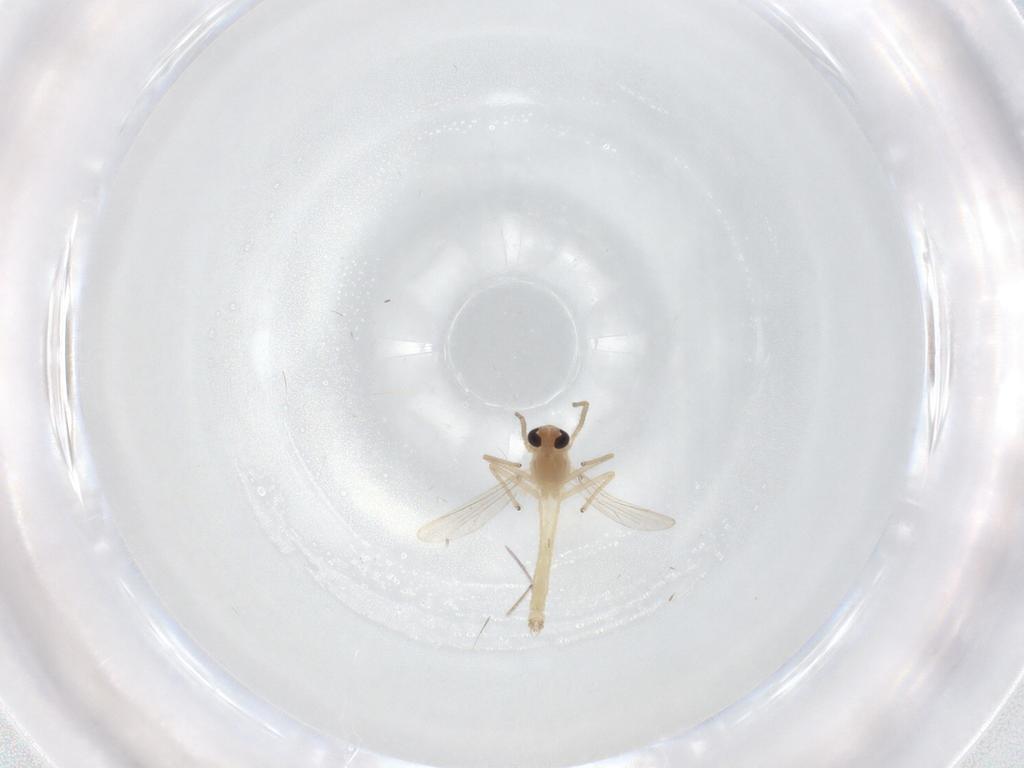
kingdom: Animalia
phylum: Arthropoda
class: Insecta
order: Diptera
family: Chironomidae
